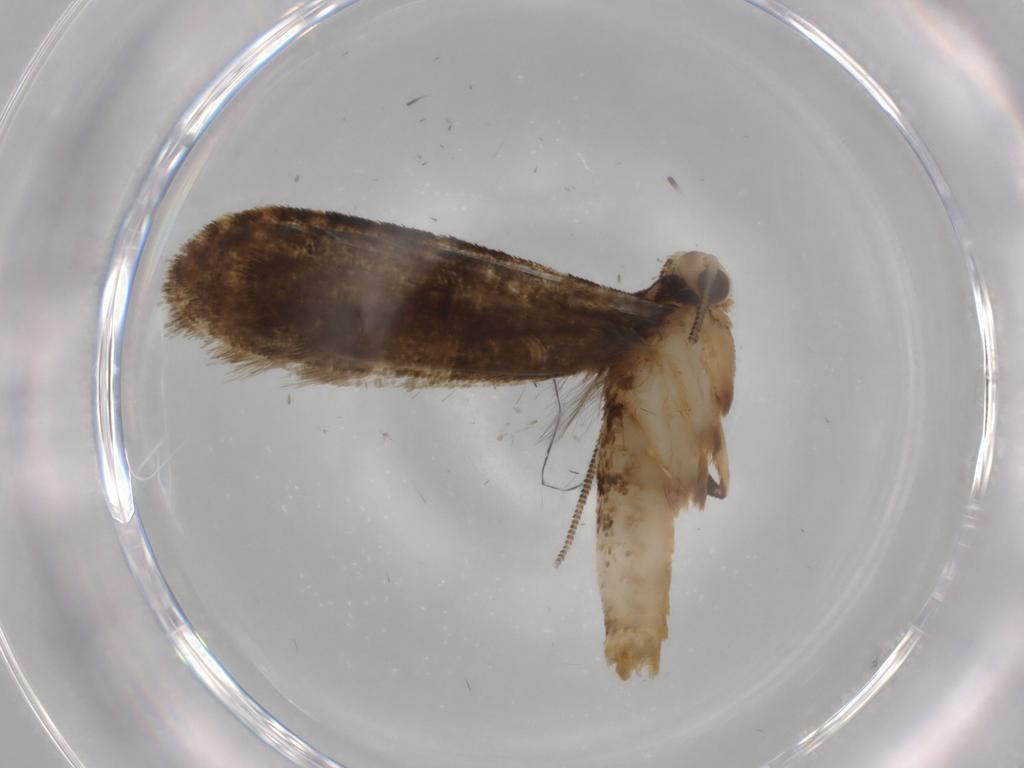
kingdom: Animalia
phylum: Arthropoda
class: Insecta
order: Lepidoptera
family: Tineidae
